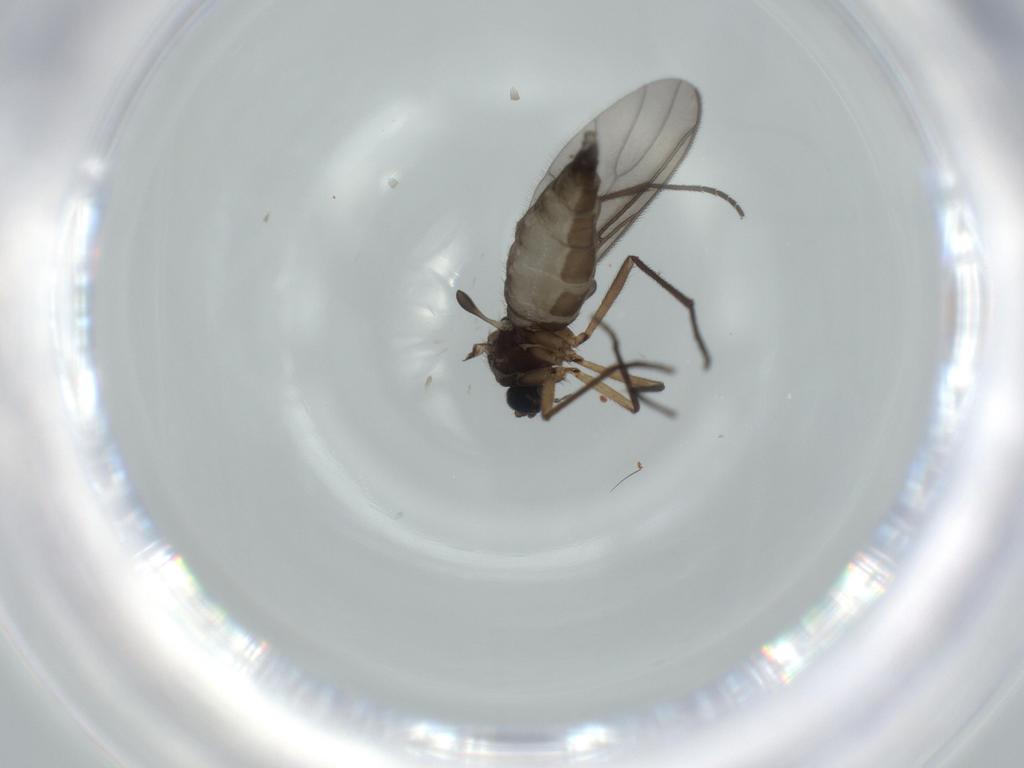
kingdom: Animalia
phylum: Arthropoda
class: Insecta
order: Diptera
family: Sciaridae
